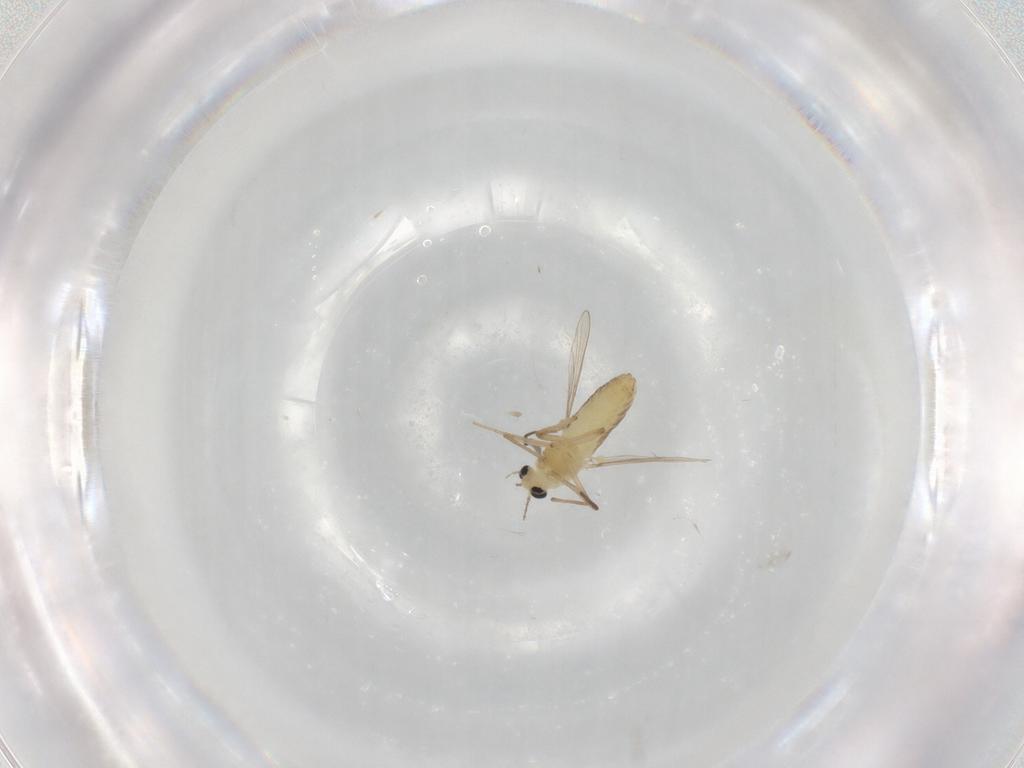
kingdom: Animalia
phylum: Arthropoda
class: Insecta
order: Diptera
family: Chironomidae
